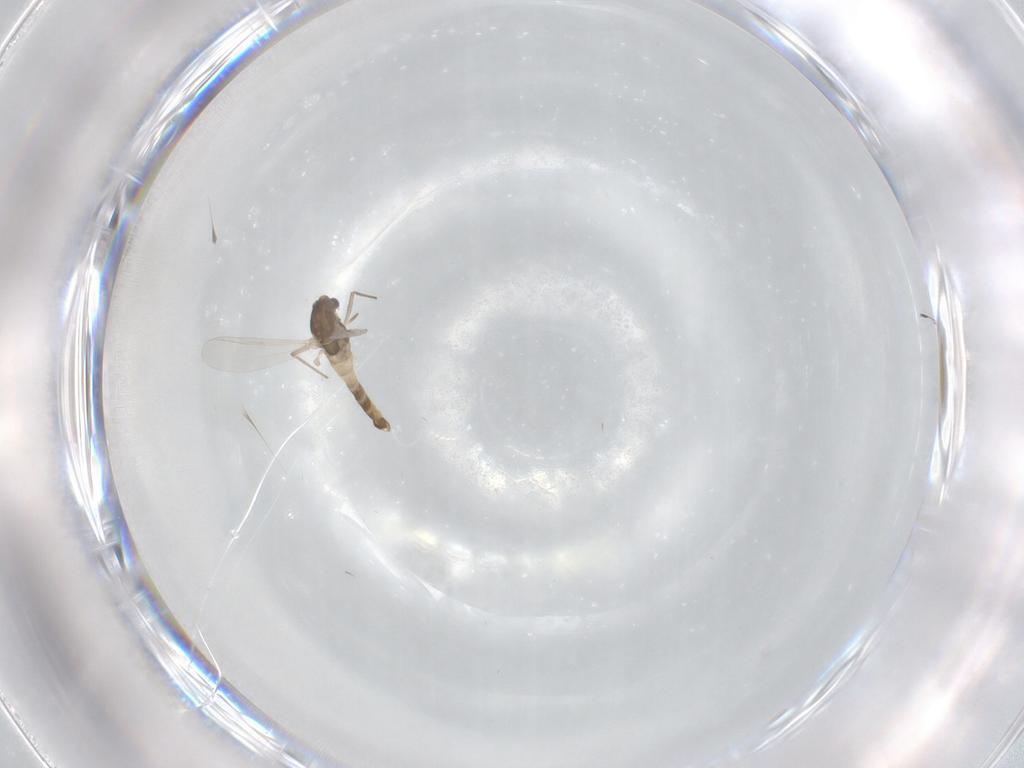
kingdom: Animalia
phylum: Arthropoda
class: Insecta
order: Diptera
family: Chironomidae
